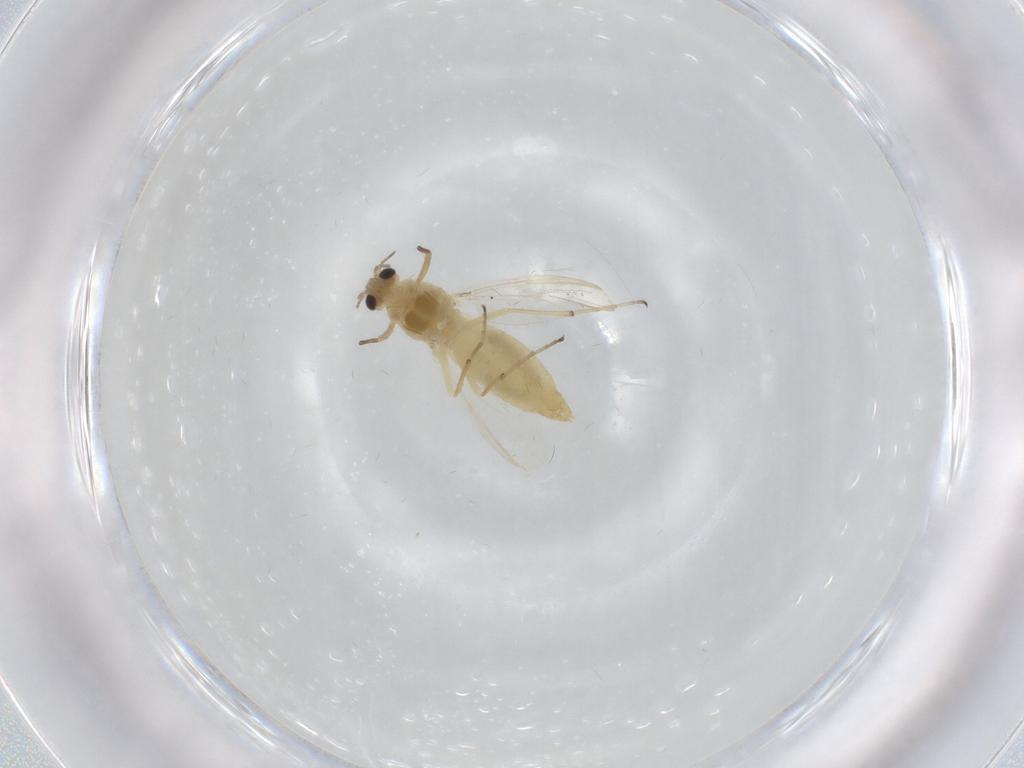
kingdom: Animalia
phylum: Arthropoda
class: Insecta
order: Diptera
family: Chironomidae
